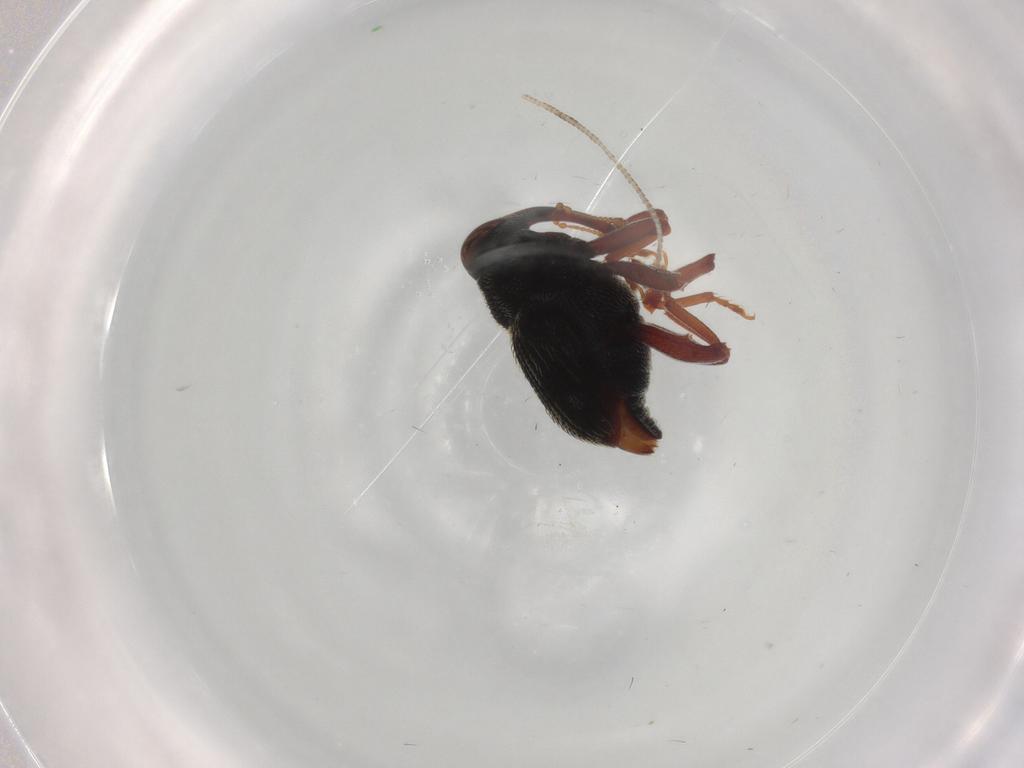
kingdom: Animalia
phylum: Arthropoda
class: Insecta
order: Coleoptera
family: Curculionidae
